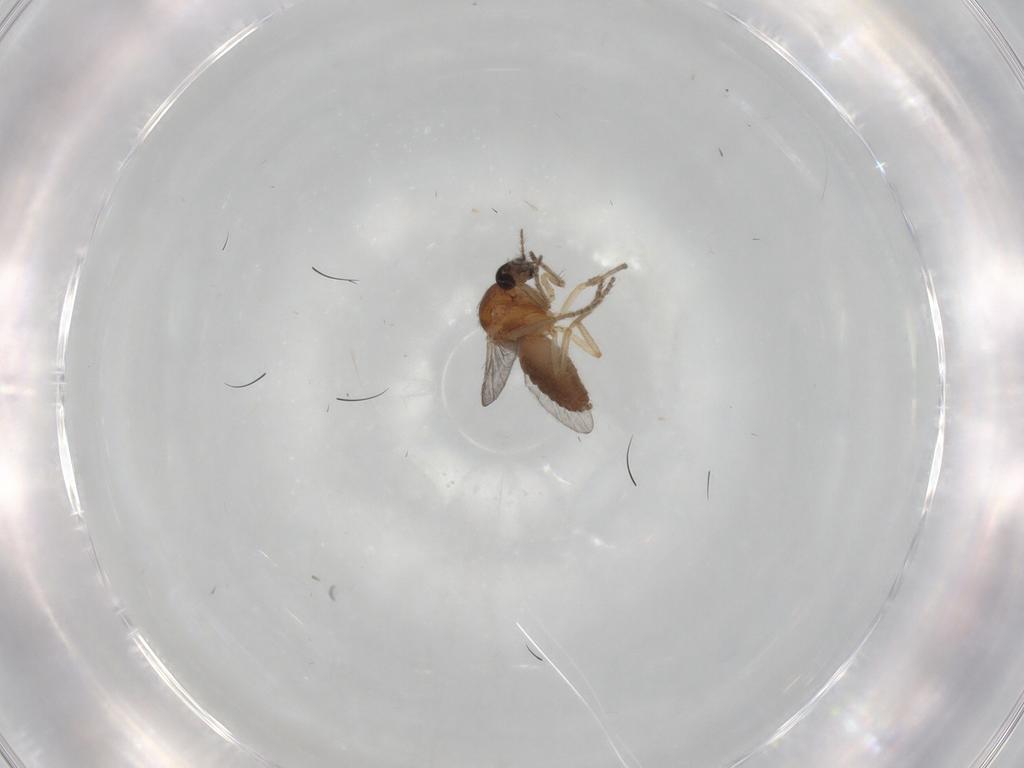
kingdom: Animalia
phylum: Arthropoda
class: Insecta
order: Diptera
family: Ceratopogonidae
